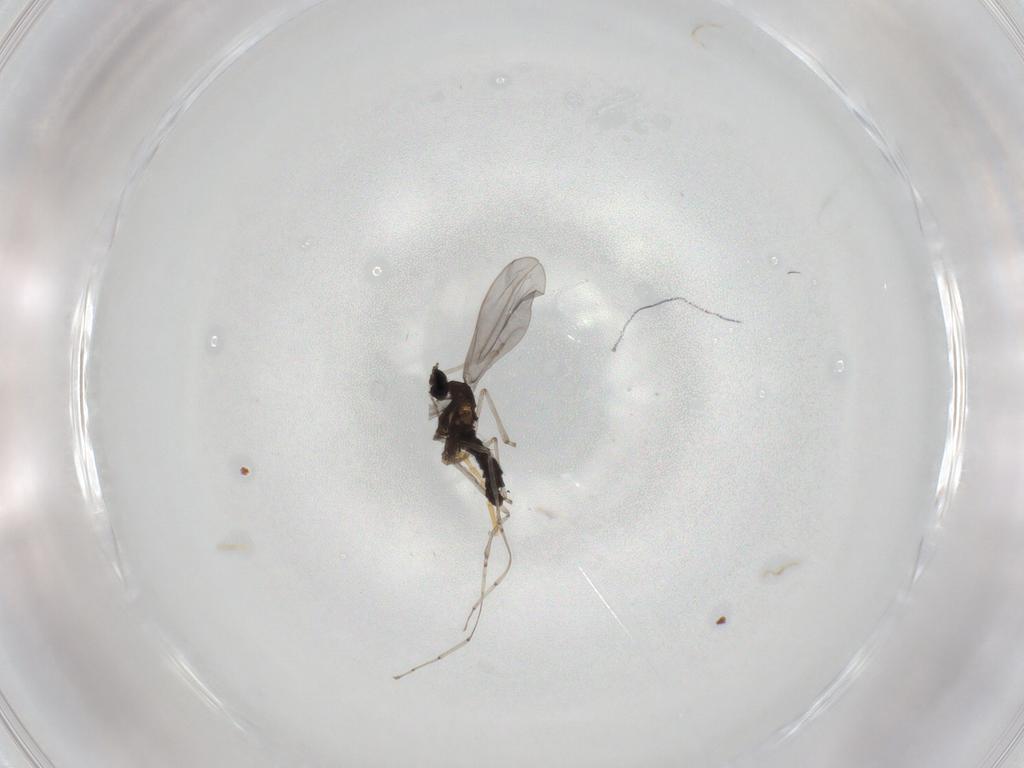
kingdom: Animalia
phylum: Arthropoda
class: Insecta
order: Diptera
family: Cecidomyiidae
